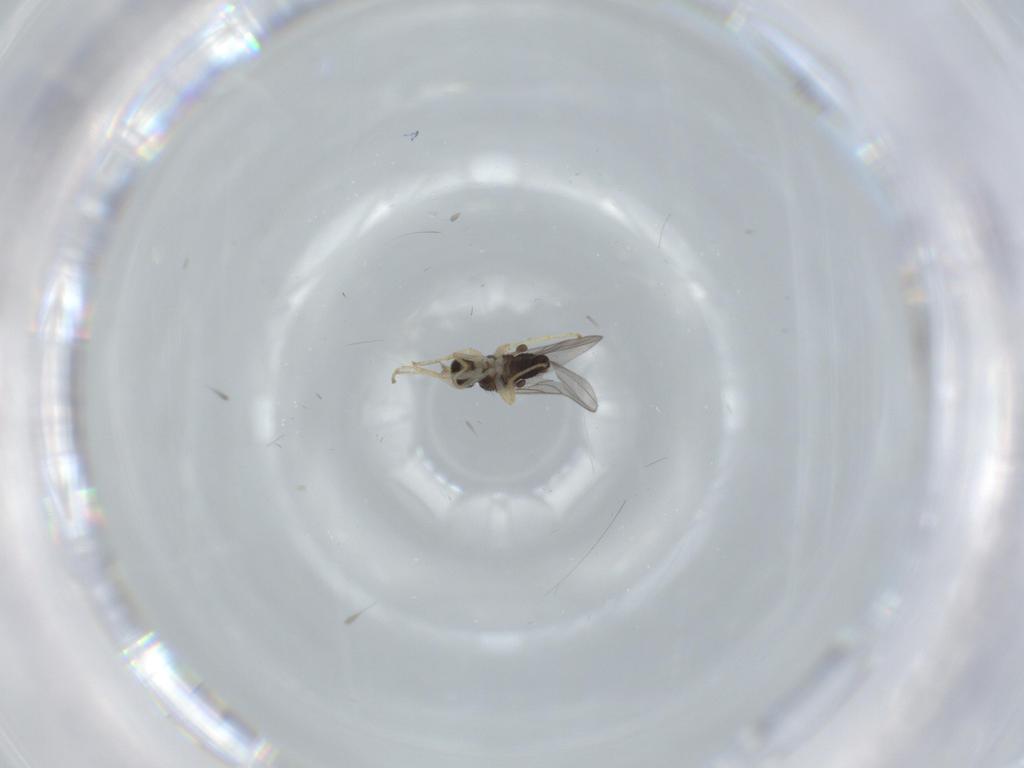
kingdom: Animalia
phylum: Arthropoda
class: Insecta
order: Diptera
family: Hybotidae
